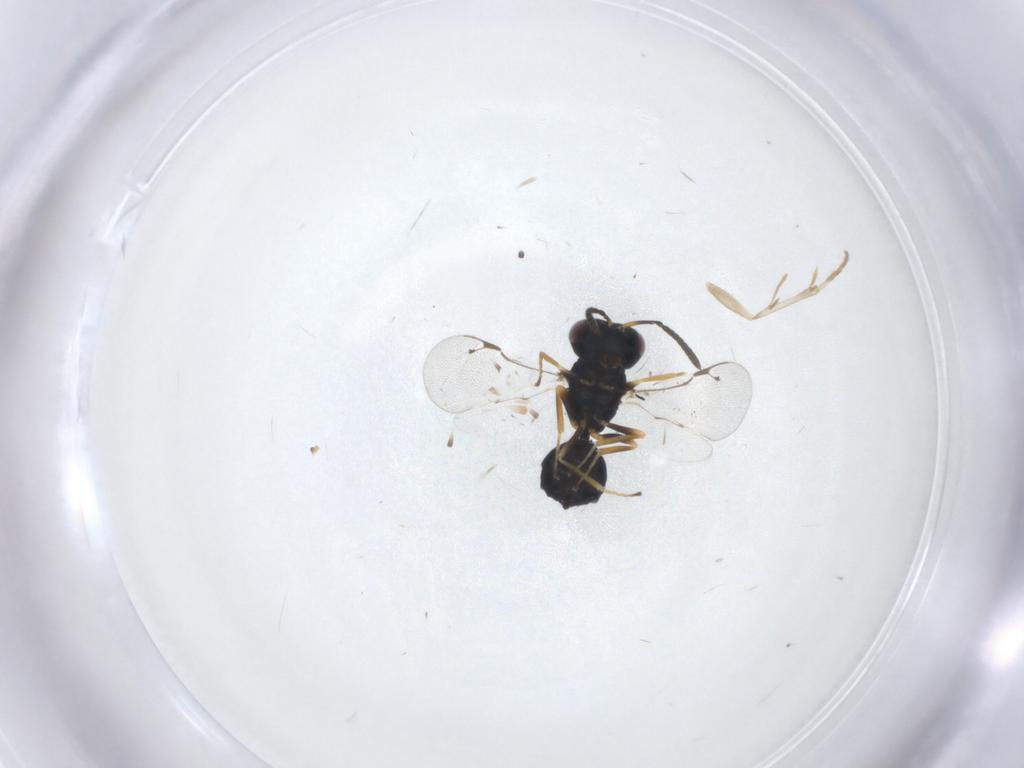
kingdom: Animalia
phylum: Arthropoda
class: Insecta
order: Hymenoptera
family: Pteromalidae
